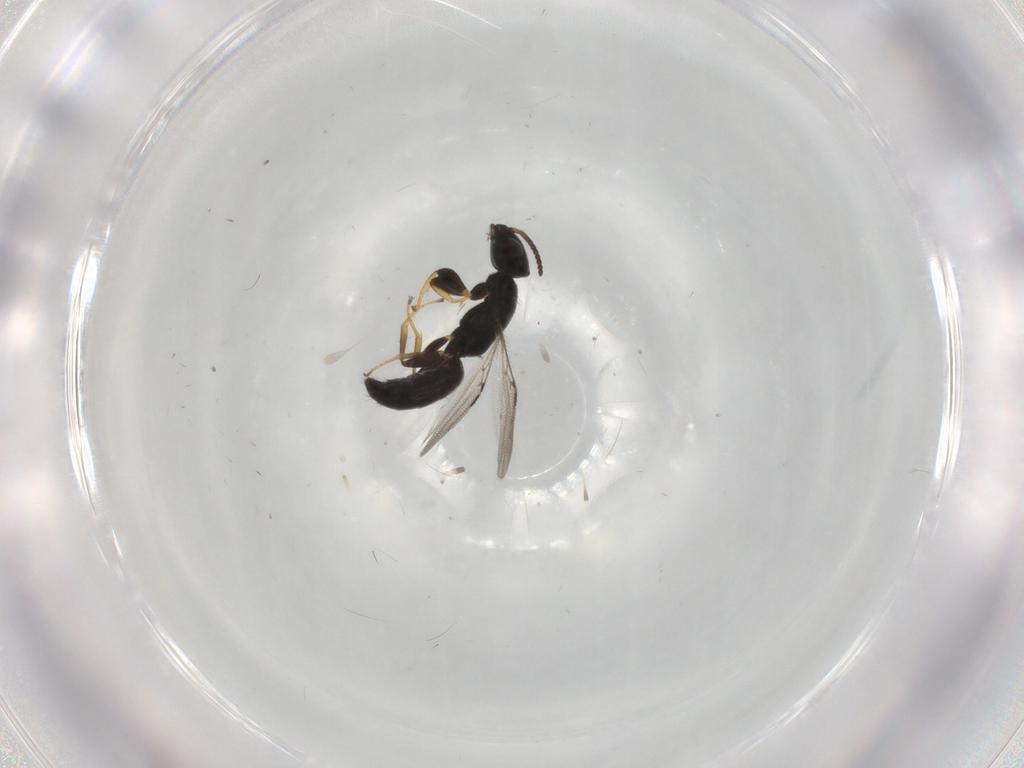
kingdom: Animalia
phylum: Arthropoda
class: Insecta
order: Hymenoptera
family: Bethylidae
